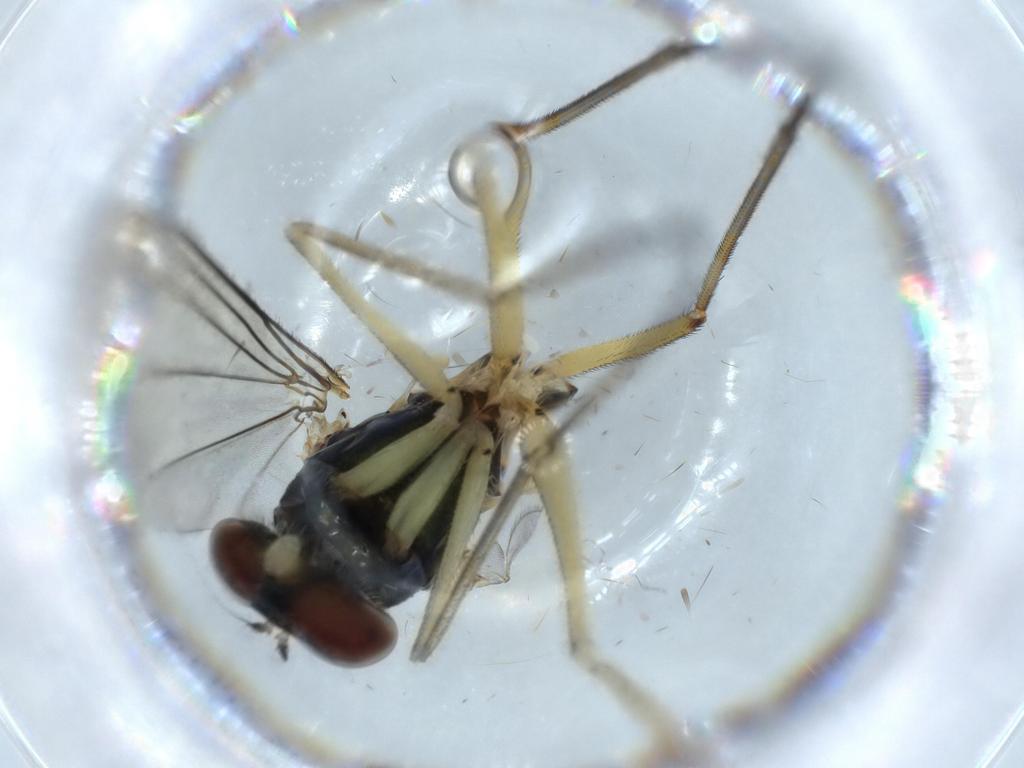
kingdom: Animalia
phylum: Arthropoda
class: Insecta
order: Diptera
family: Dolichopodidae
